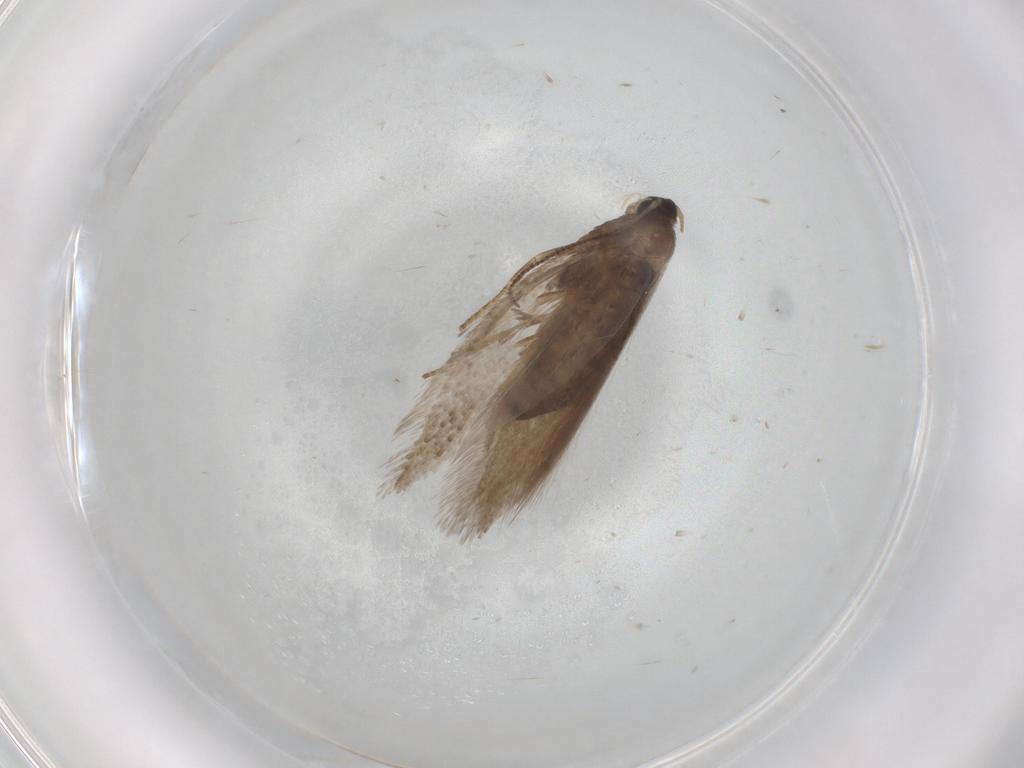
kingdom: Animalia
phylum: Arthropoda
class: Insecta
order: Lepidoptera
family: Nepticulidae
